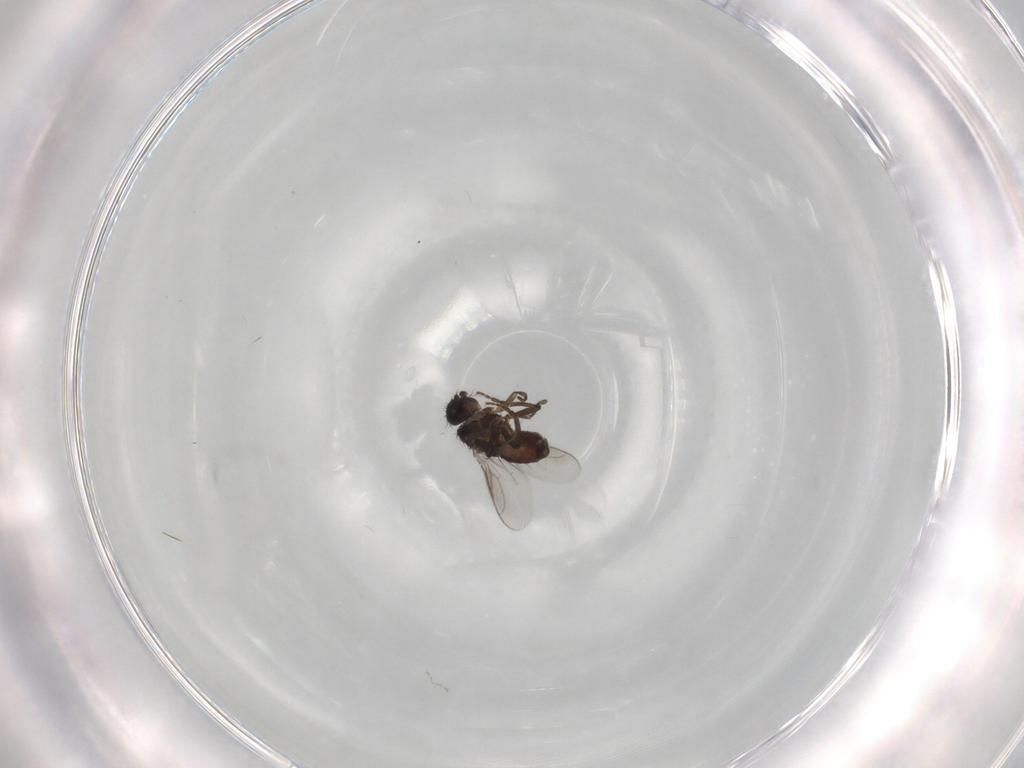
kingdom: Animalia
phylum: Arthropoda
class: Insecta
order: Diptera
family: Sphaeroceridae
